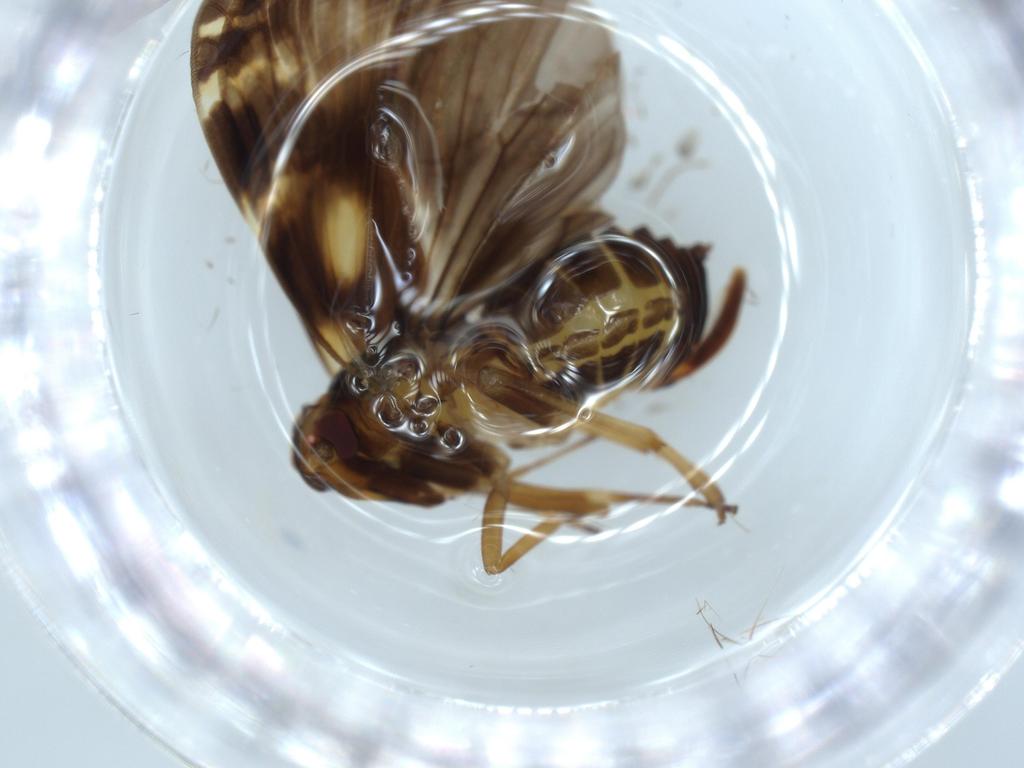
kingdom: Animalia
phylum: Arthropoda
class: Insecta
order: Hemiptera
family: Cixiidae
